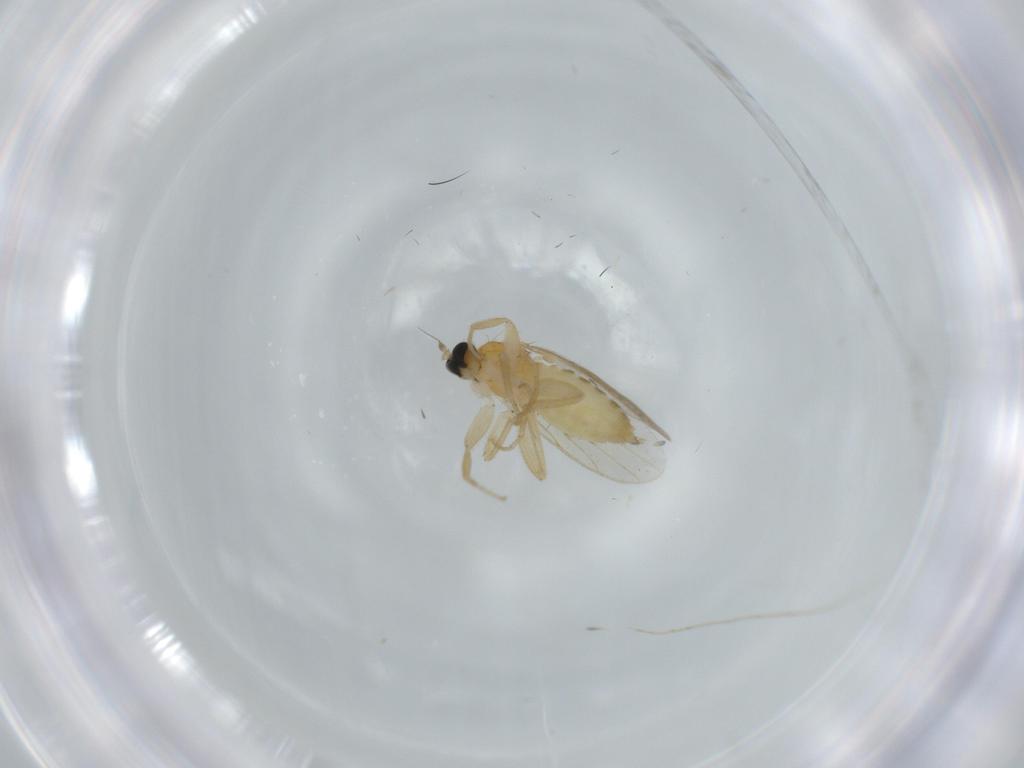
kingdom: Animalia
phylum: Arthropoda
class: Insecta
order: Diptera
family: Hybotidae
